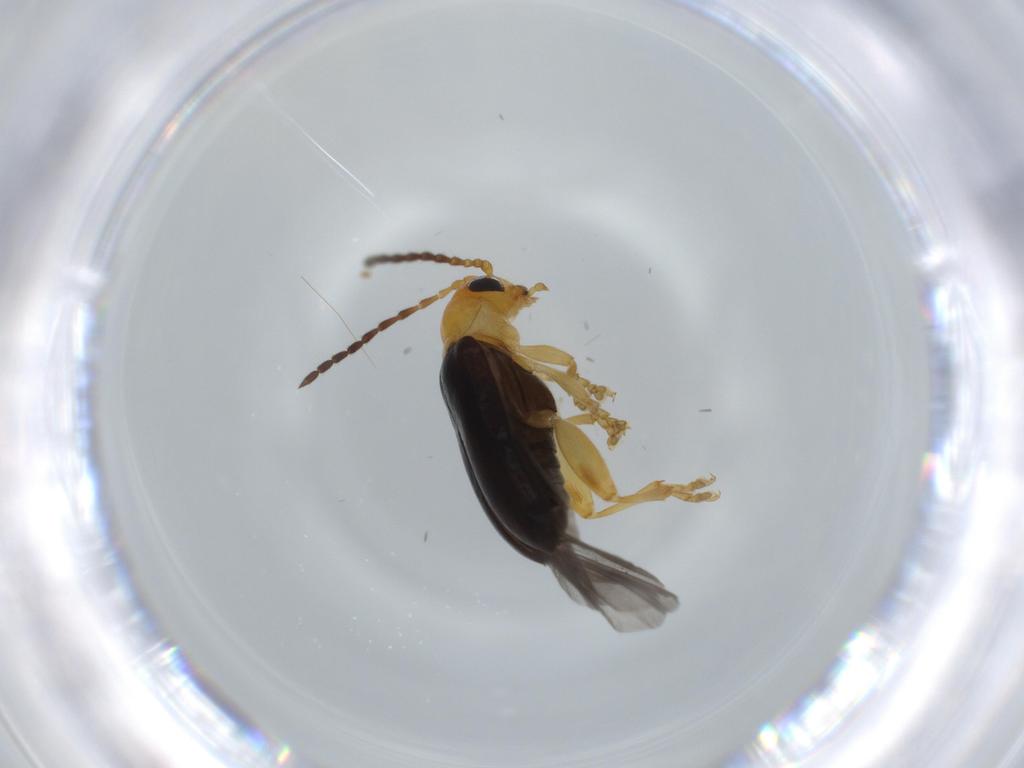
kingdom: Animalia
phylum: Arthropoda
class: Insecta
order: Coleoptera
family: Chrysomelidae
